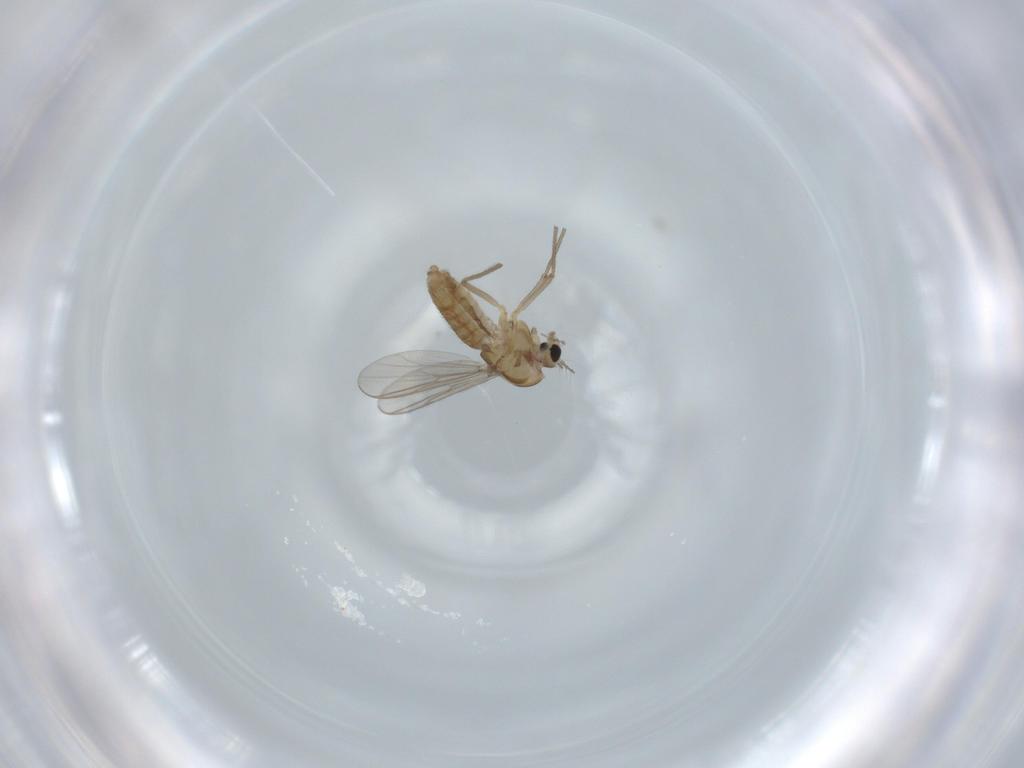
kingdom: Animalia
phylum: Arthropoda
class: Insecta
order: Diptera
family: Chironomidae
